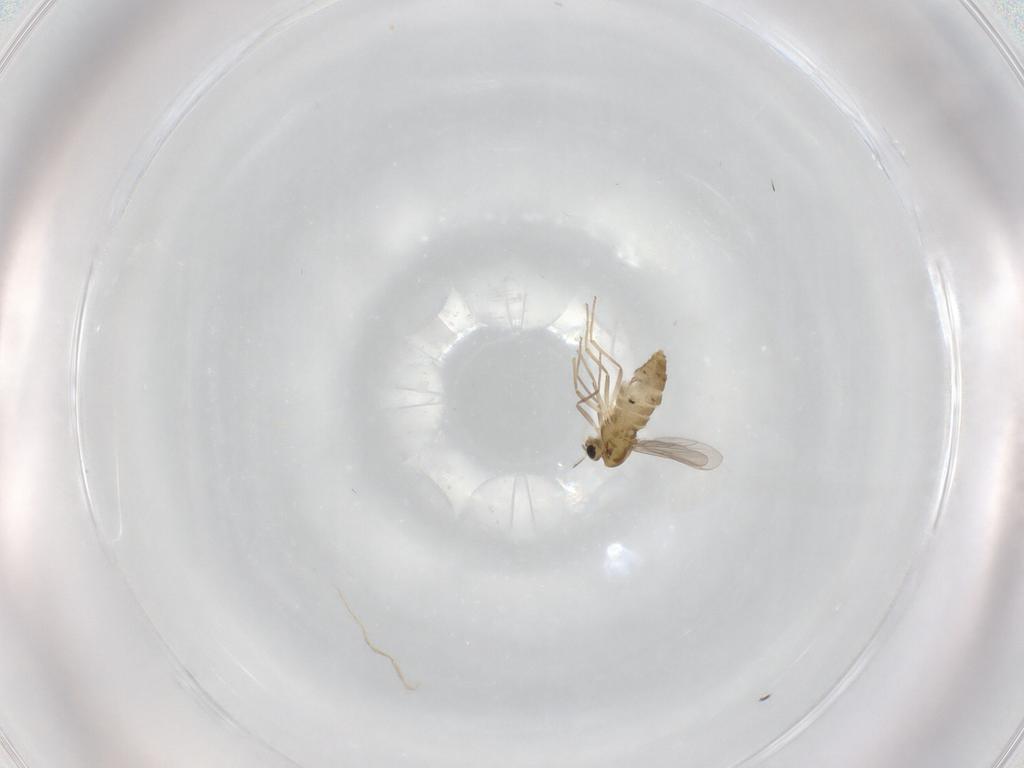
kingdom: Animalia
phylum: Arthropoda
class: Insecta
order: Diptera
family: Chironomidae
